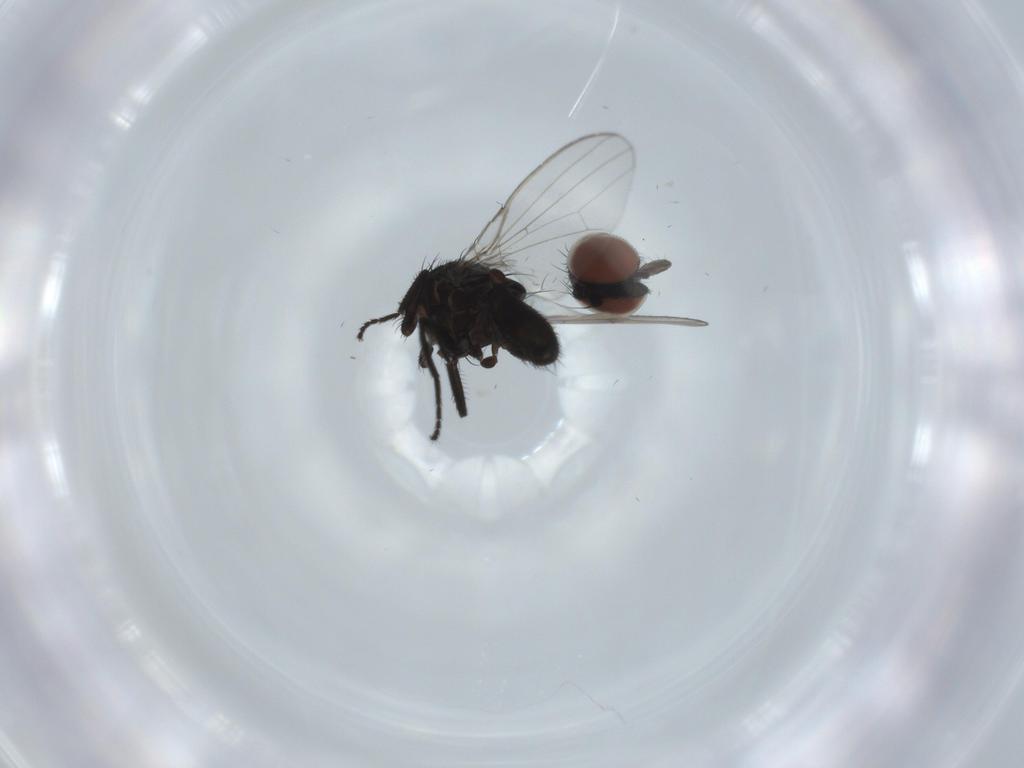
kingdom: Animalia
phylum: Arthropoda
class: Insecta
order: Diptera
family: Milichiidae
